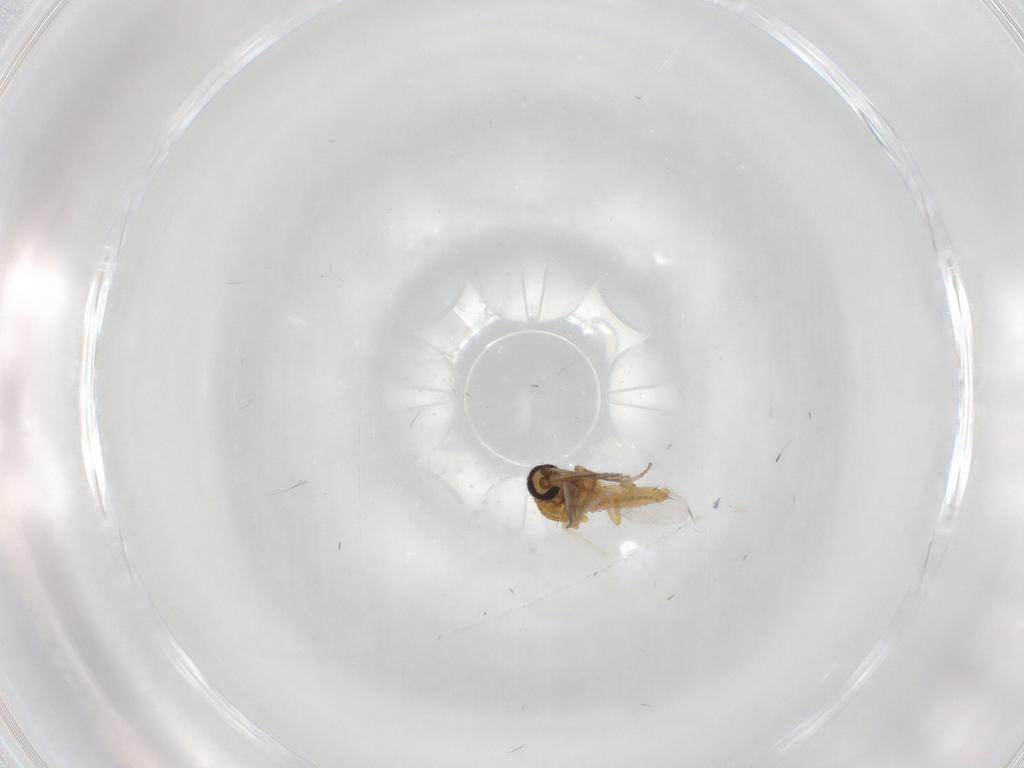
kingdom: Animalia
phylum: Arthropoda
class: Insecta
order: Diptera
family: Ceratopogonidae
